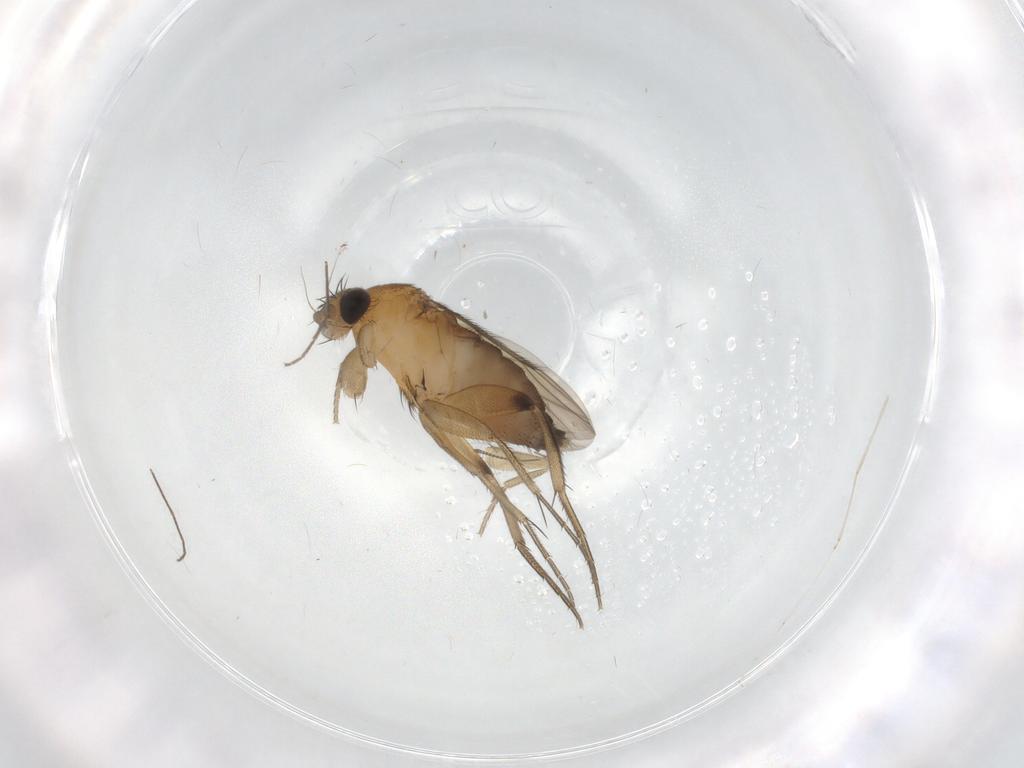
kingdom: Animalia
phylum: Arthropoda
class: Insecta
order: Diptera
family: Phoridae
